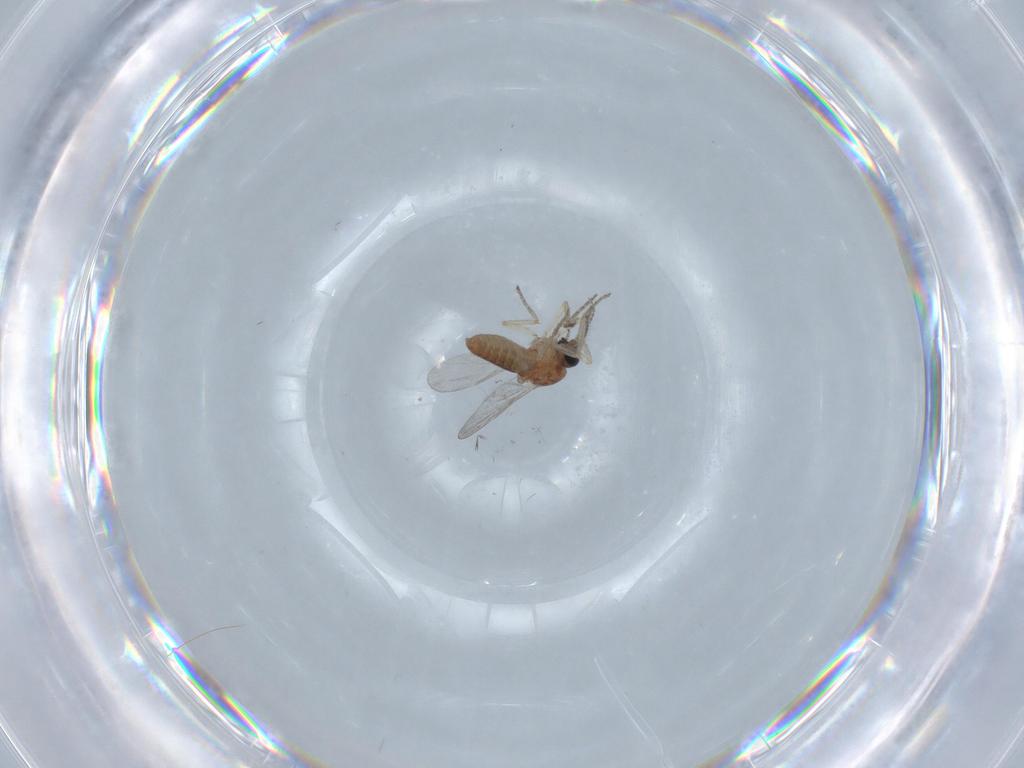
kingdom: Animalia
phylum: Arthropoda
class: Insecta
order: Diptera
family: Ceratopogonidae
